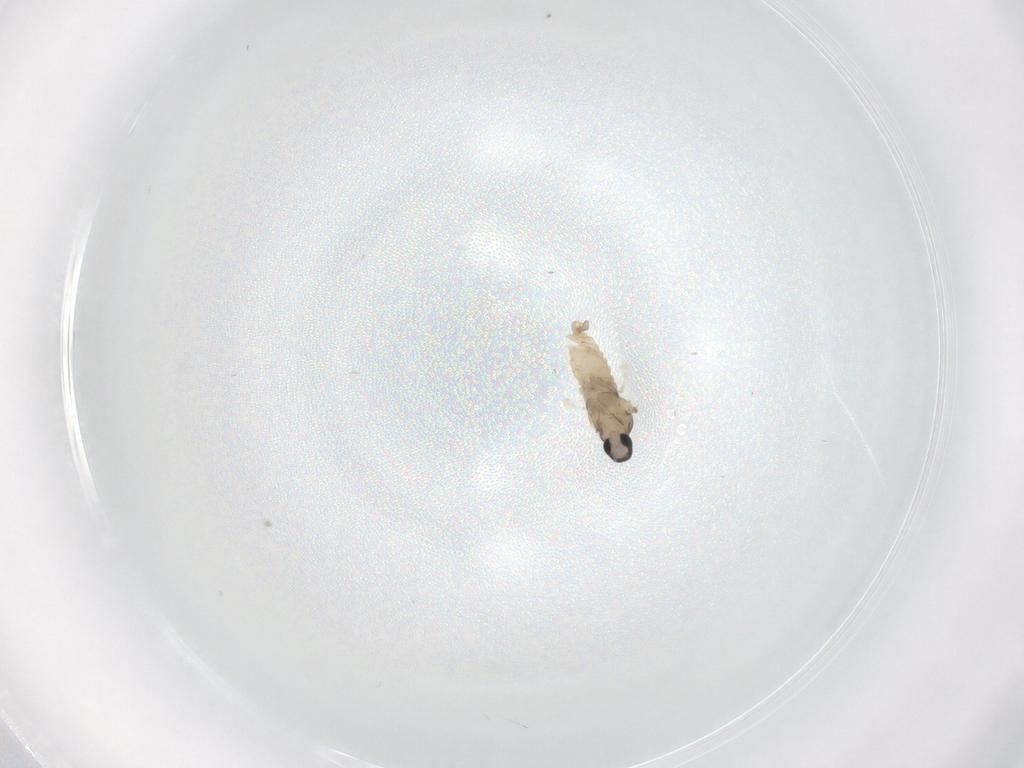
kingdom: Animalia
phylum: Arthropoda
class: Insecta
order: Diptera
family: Cecidomyiidae
